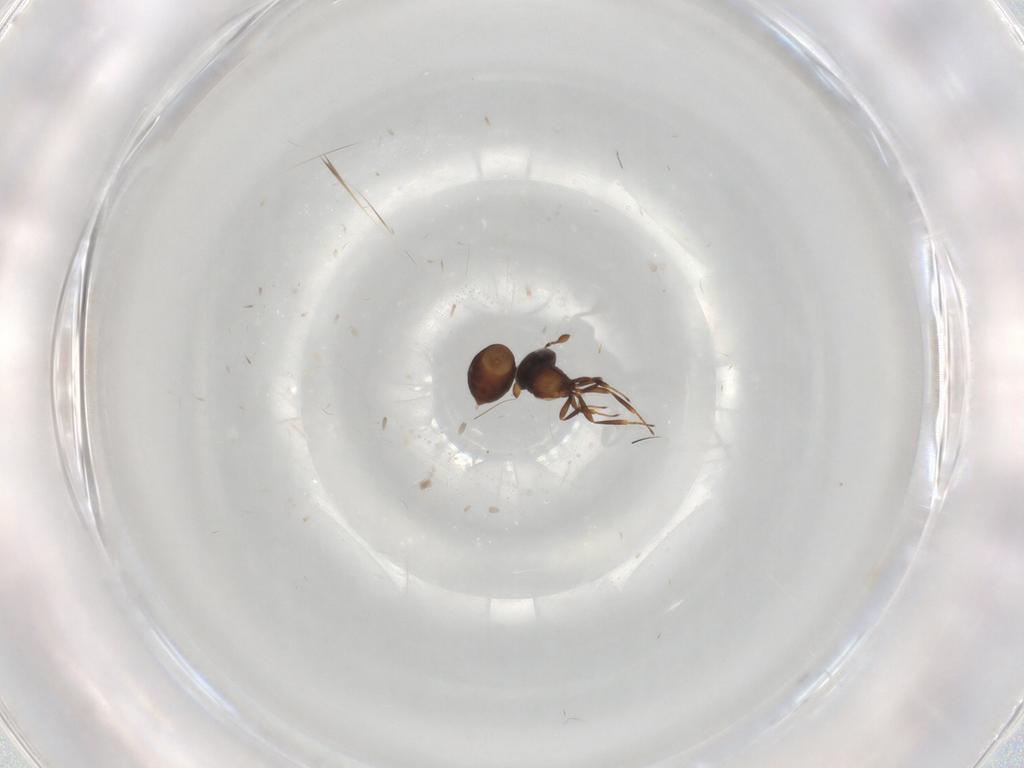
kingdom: Animalia
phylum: Arthropoda
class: Insecta
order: Hymenoptera
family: Scelionidae
